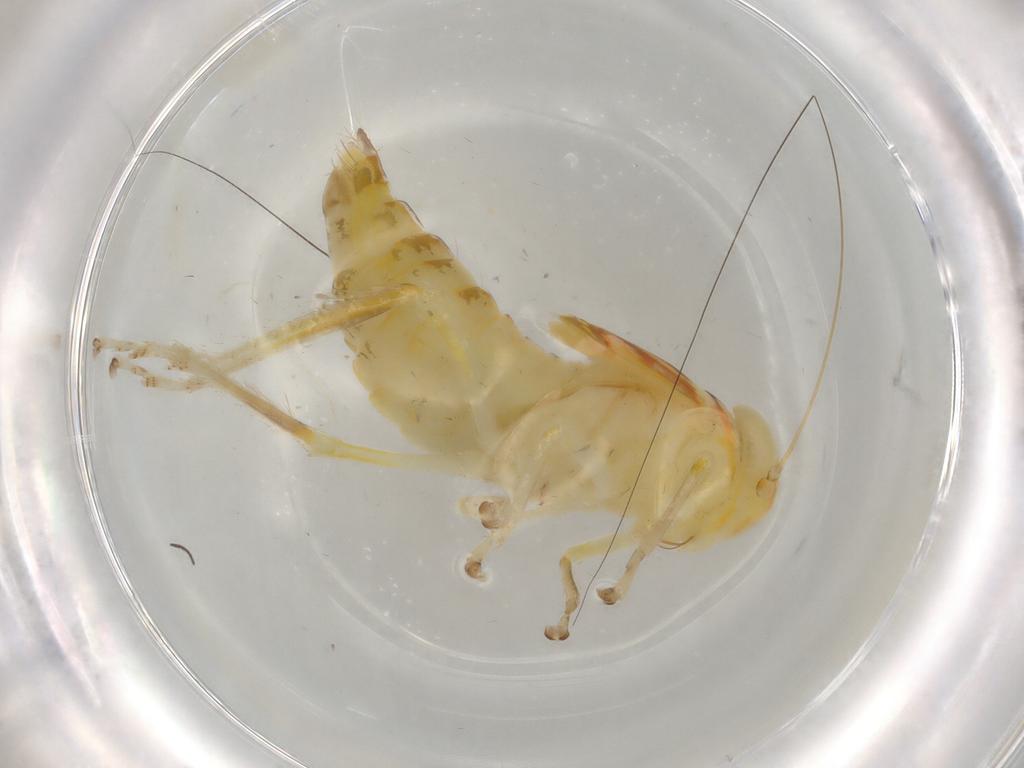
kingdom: Animalia
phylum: Arthropoda
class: Insecta
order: Hemiptera
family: Cicadellidae
